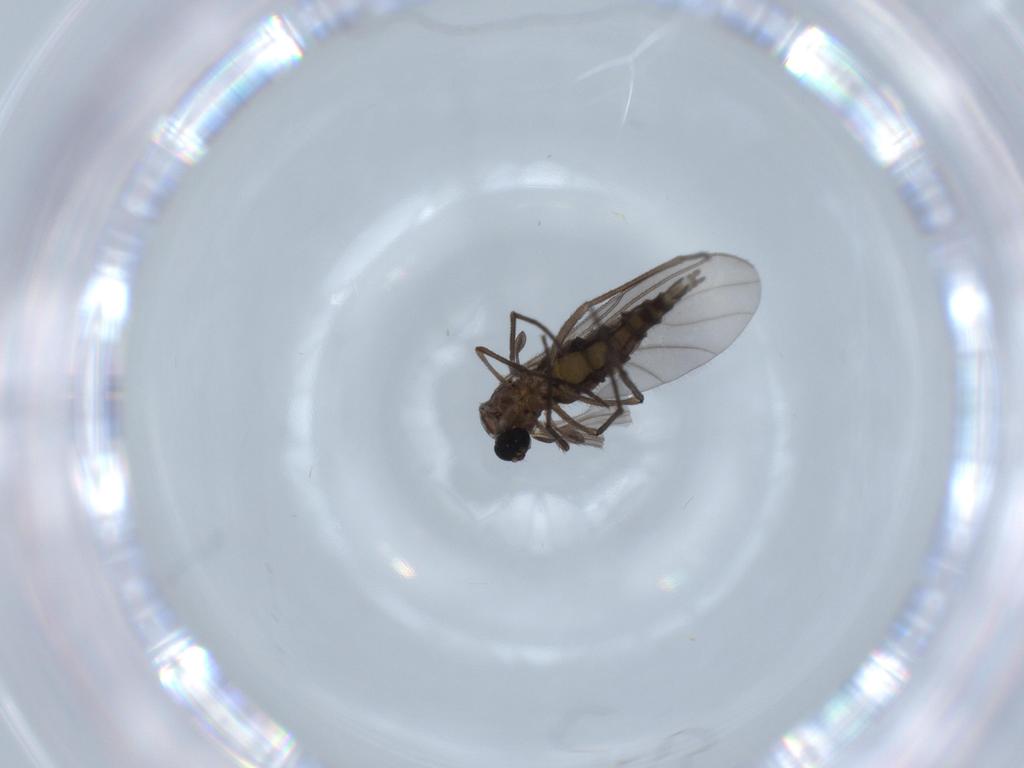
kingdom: Animalia
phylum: Arthropoda
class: Insecta
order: Diptera
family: Sciaridae
